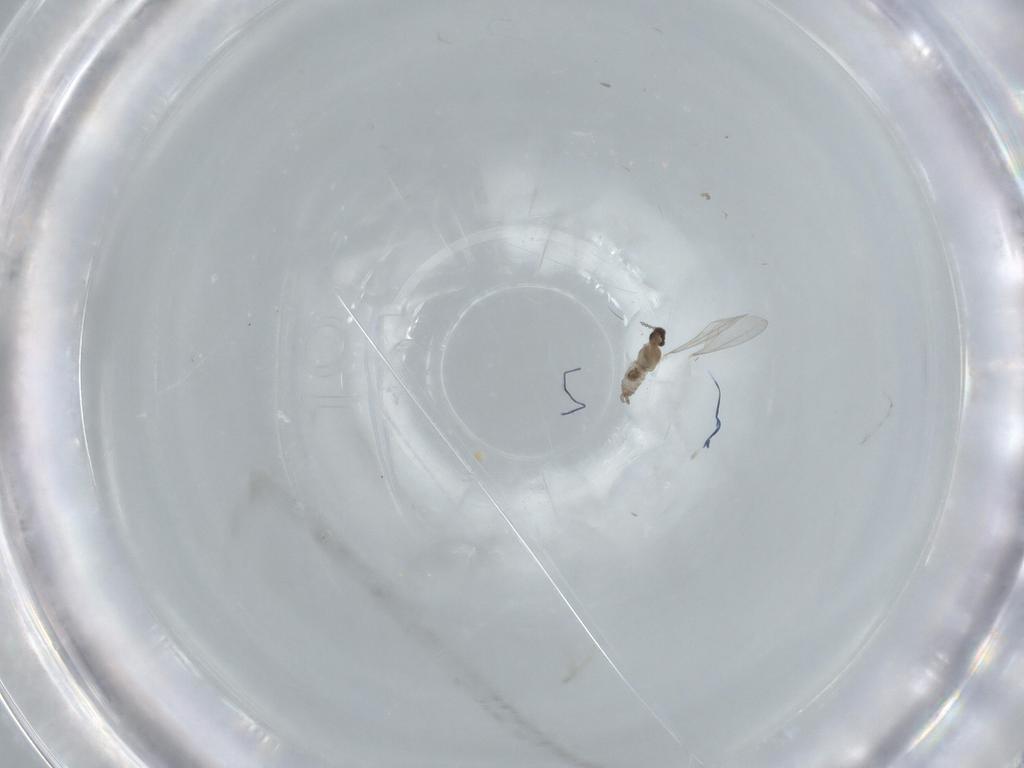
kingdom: Animalia
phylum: Arthropoda
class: Insecta
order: Diptera
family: Cecidomyiidae
